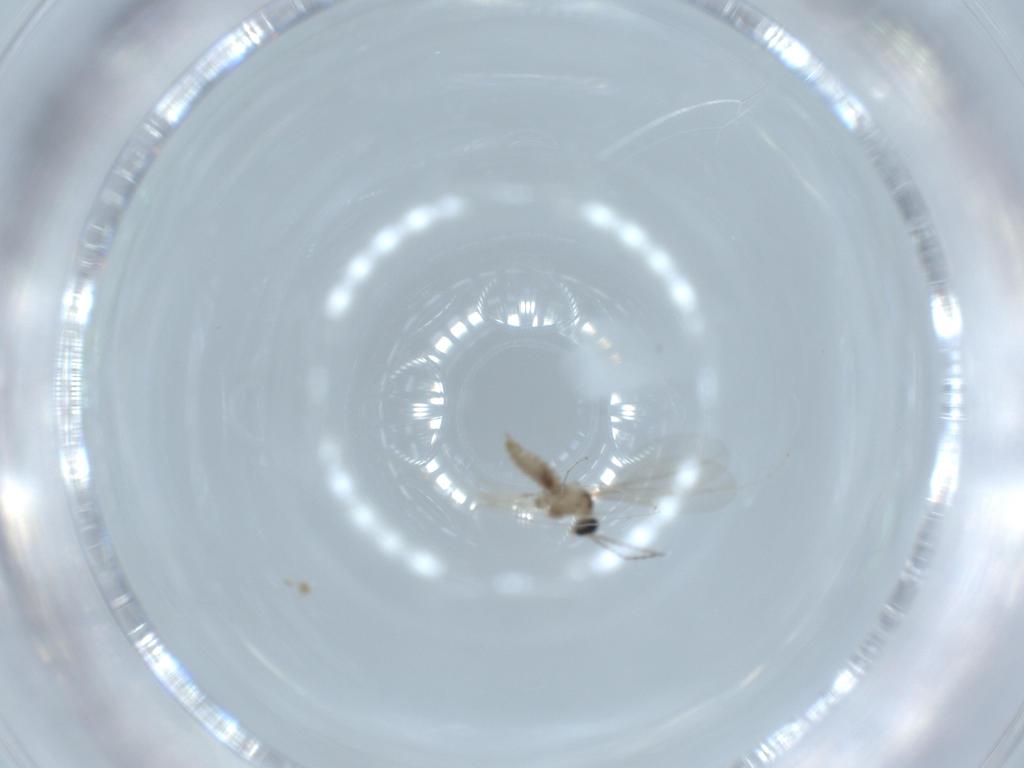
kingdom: Animalia
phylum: Arthropoda
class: Insecta
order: Diptera
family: Cecidomyiidae
